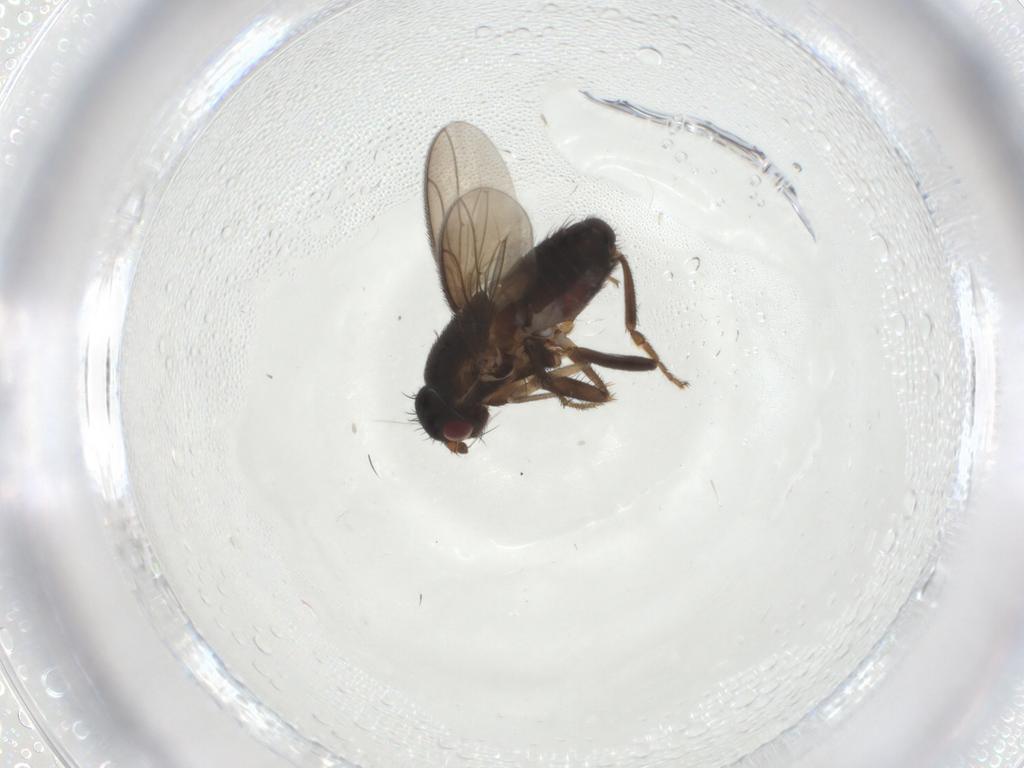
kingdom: Animalia
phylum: Arthropoda
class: Insecta
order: Diptera
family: Sphaeroceridae
